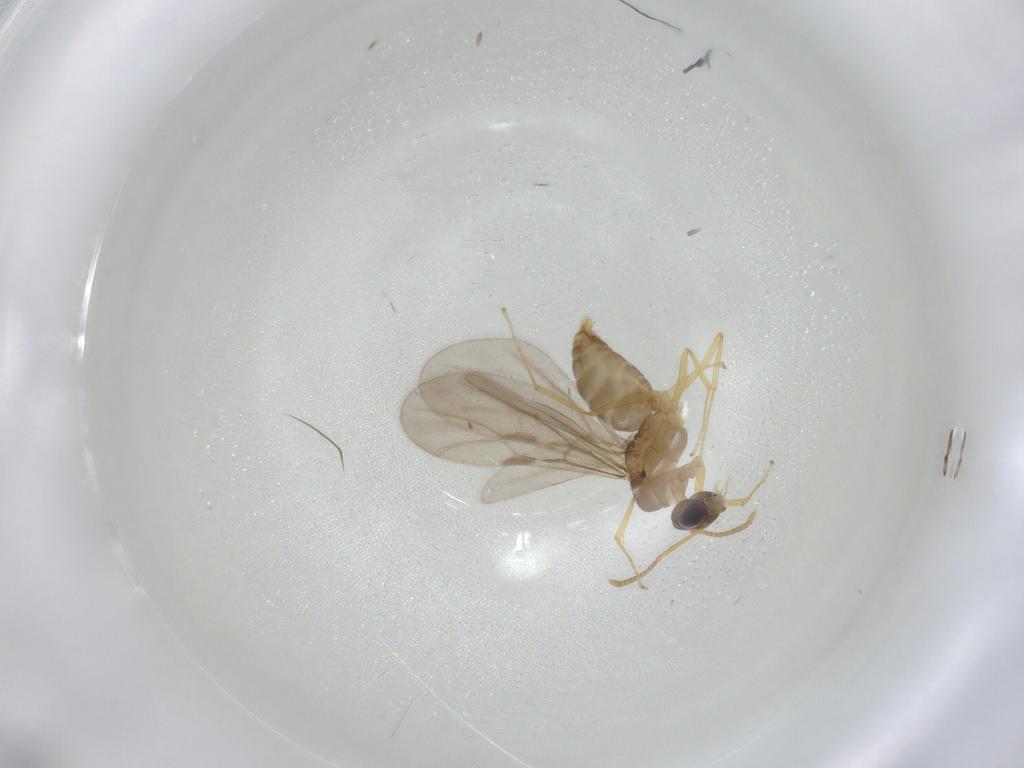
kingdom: Animalia
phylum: Arthropoda
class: Insecta
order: Hymenoptera
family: Formicidae
